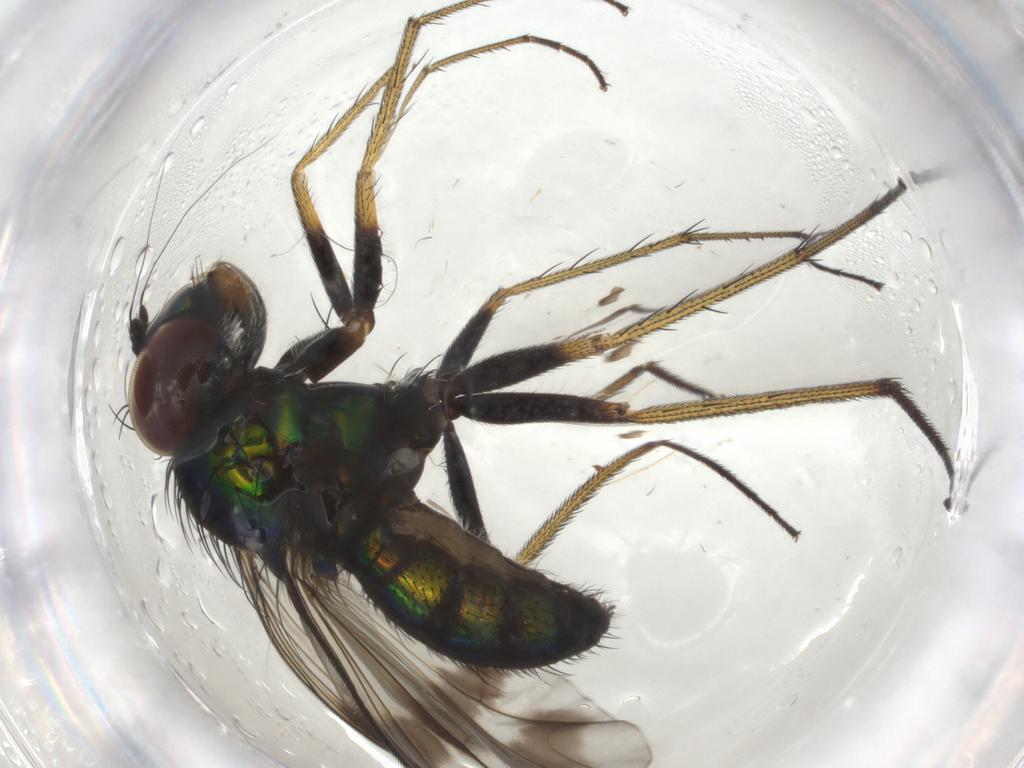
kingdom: Animalia
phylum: Arthropoda
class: Insecta
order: Diptera
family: Dolichopodidae
